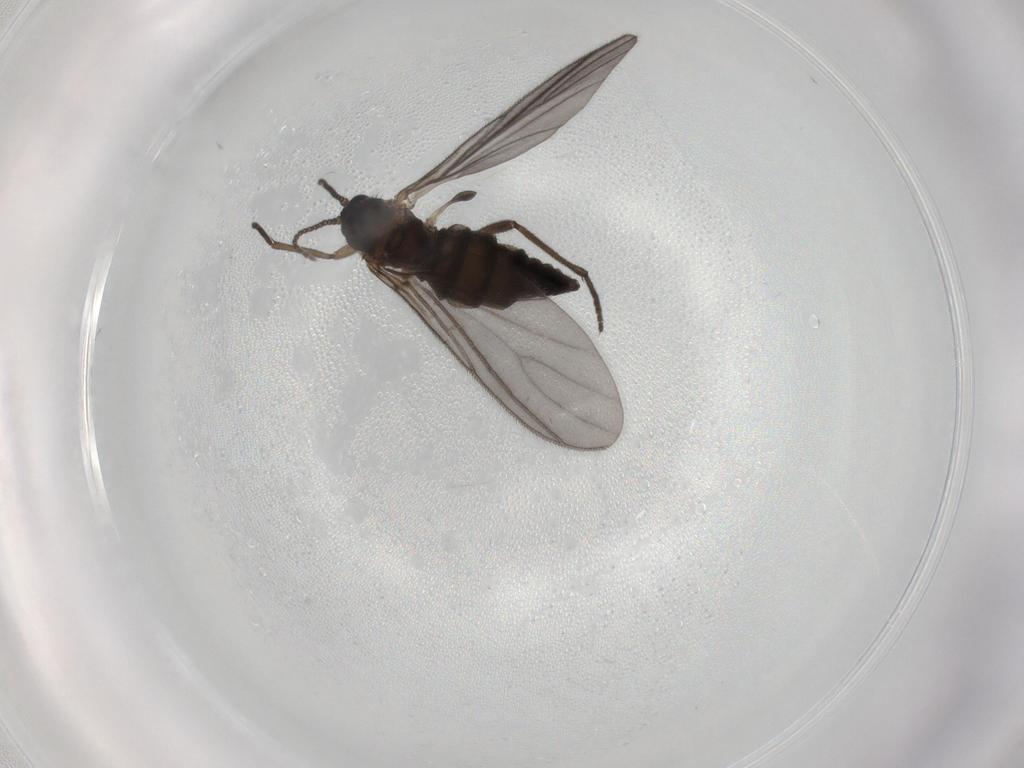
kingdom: Animalia
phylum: Arthropoda
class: Insecta
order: Diptera
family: Sciaridae
